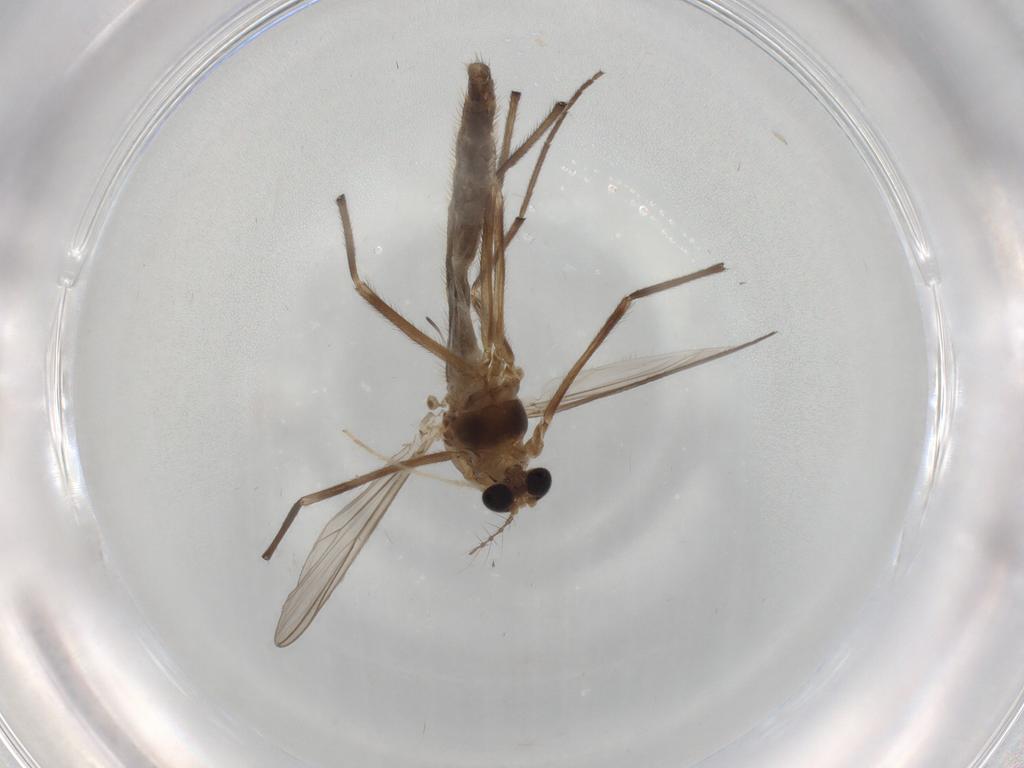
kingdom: Animalia
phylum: Arthropoda
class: Insecta
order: Diptera
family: Chironomidae
